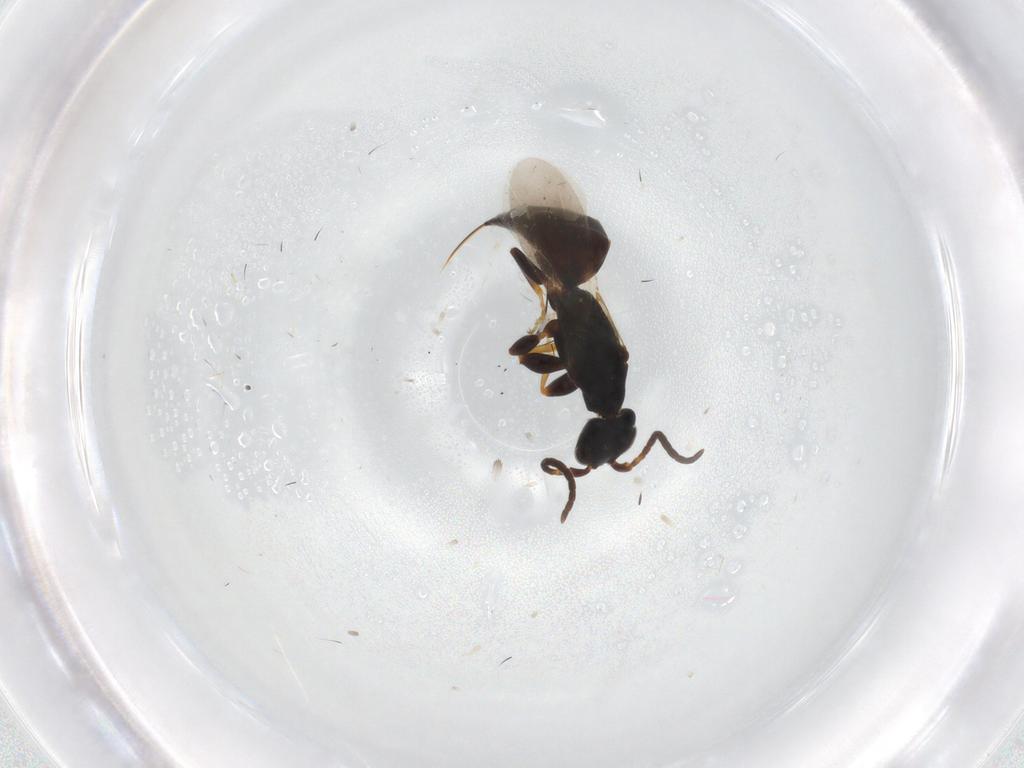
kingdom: Animalia
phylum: Arthropoda
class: Insecta
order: Hymenoptera
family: Bethylidae
